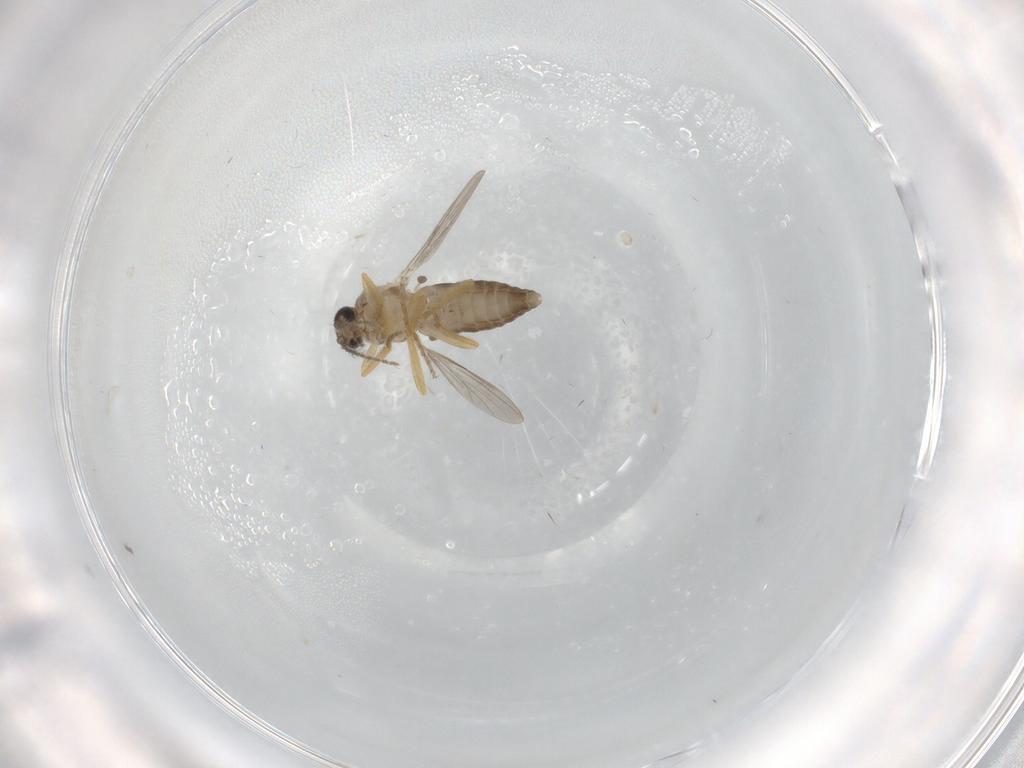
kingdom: Animalia
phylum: Arthropoda
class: Insecta
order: Diptera
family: Ceratopogonidae
